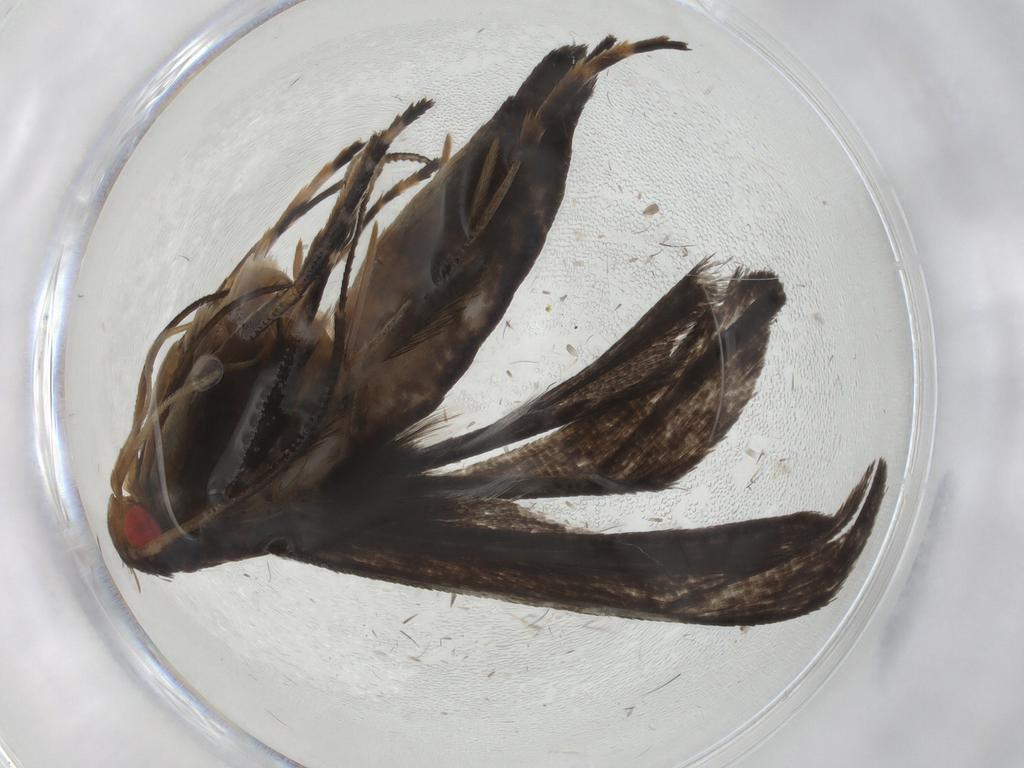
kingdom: Animalia
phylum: Arthropoda
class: Insecta
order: Lepidoptera
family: Gelechiidae
